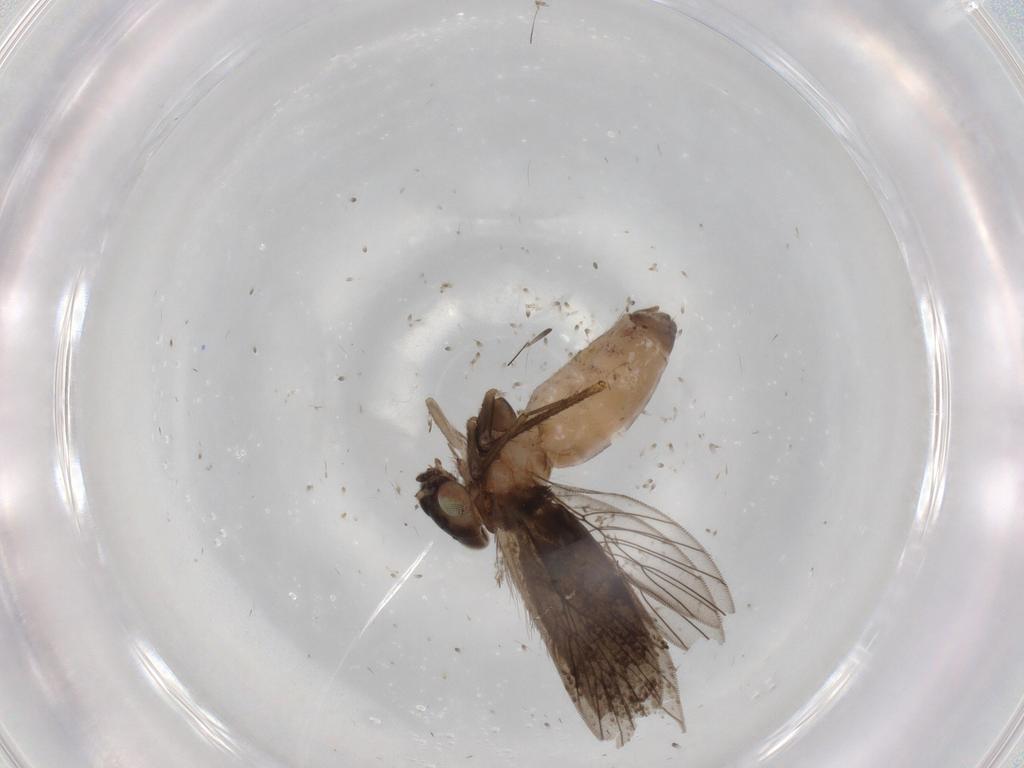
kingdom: Animalia
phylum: Arthropoda
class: Insecta
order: Psocodea
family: Lepidopsocidae
